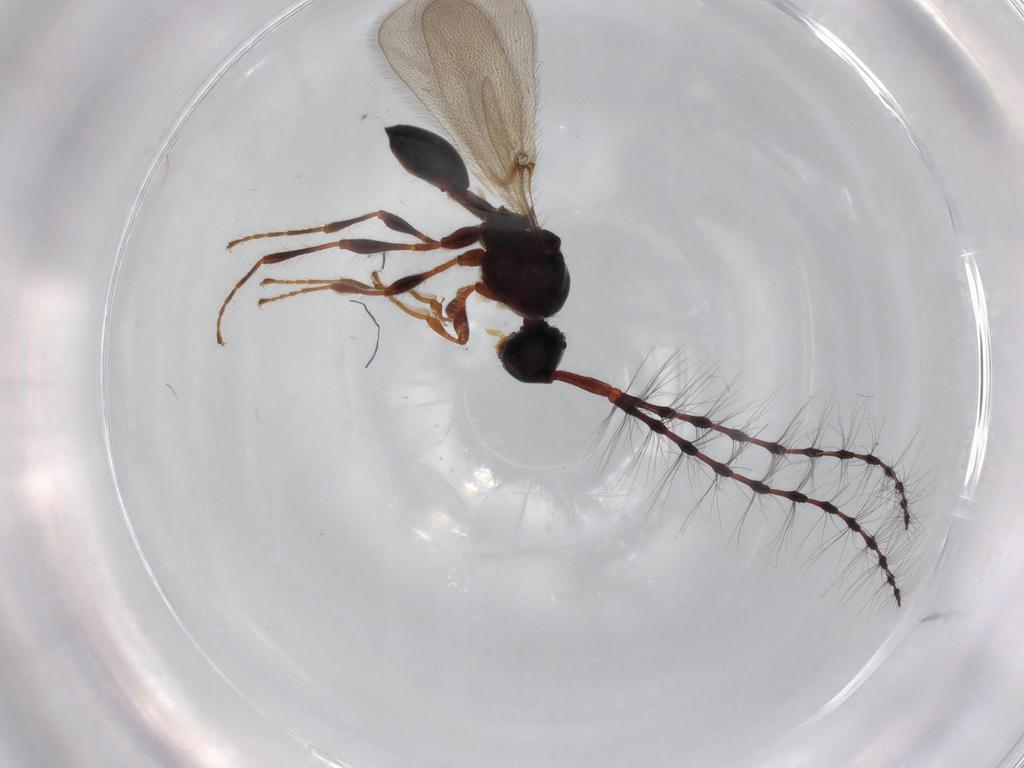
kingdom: Animalia
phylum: Arthropoda
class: Insecta
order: Hymenoptera
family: Diapriidae
